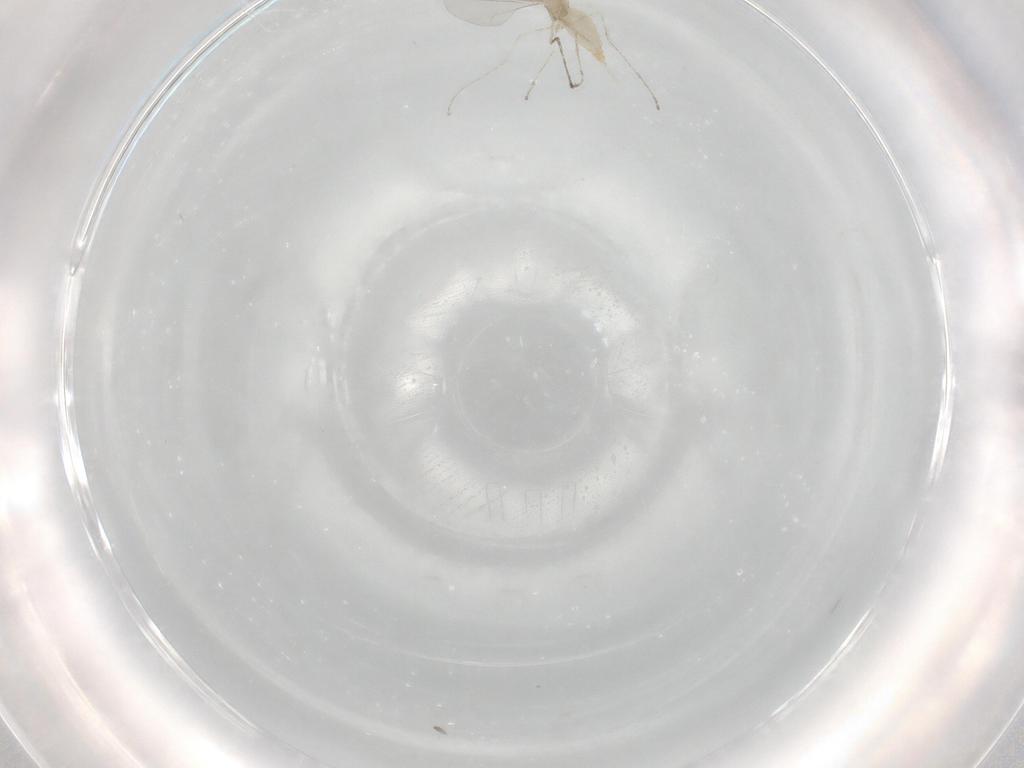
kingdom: Animalia
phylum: Arthropoda
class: Insecta
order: Diptera
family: Cecidomyiidae
